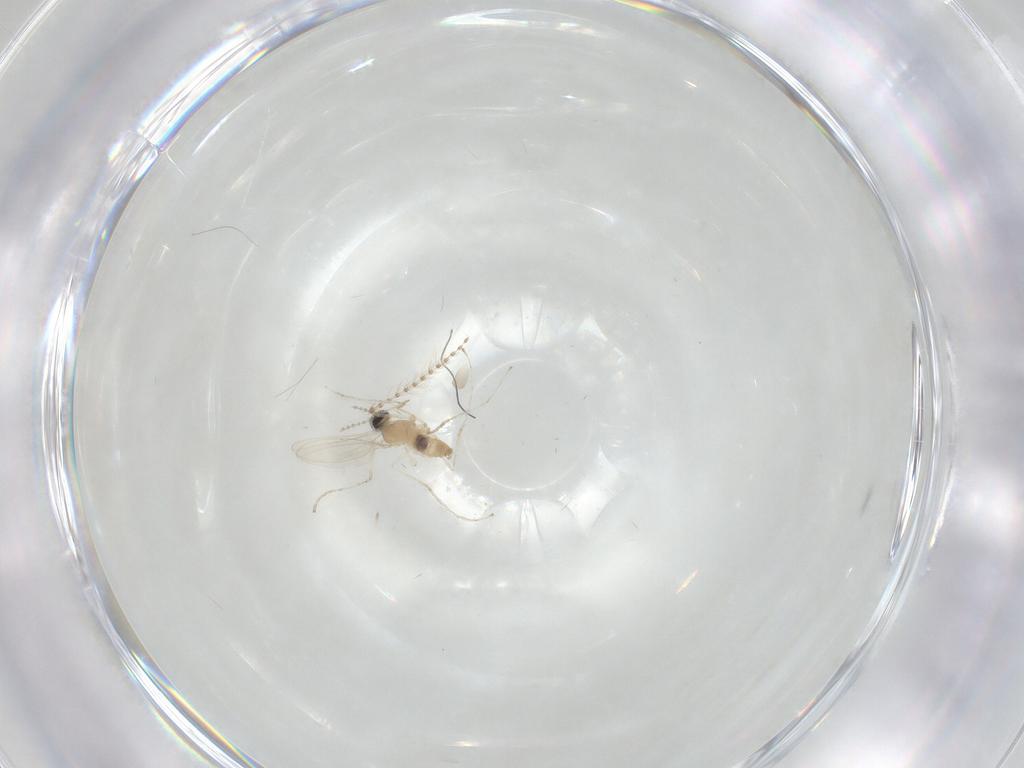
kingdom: Animalia
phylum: Arthropoda
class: Insecta
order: Diptera
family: Cecidomyiidae
